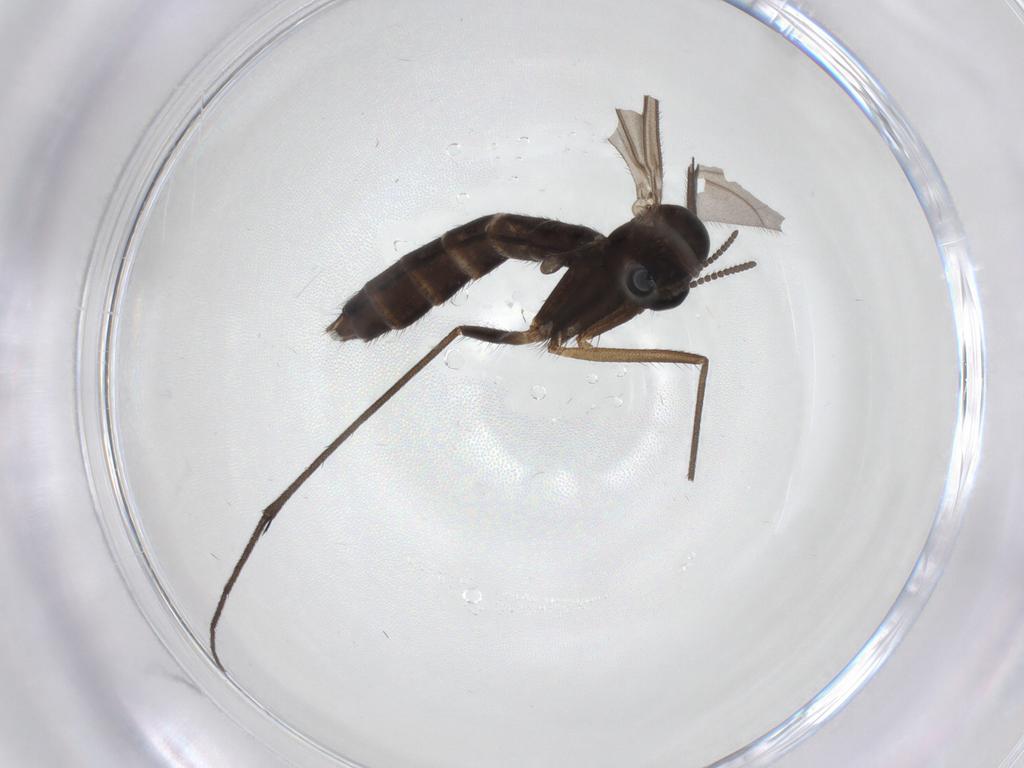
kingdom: Animalia
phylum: Arthropoda
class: Insecta
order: Diptera
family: Ditomyiidae
